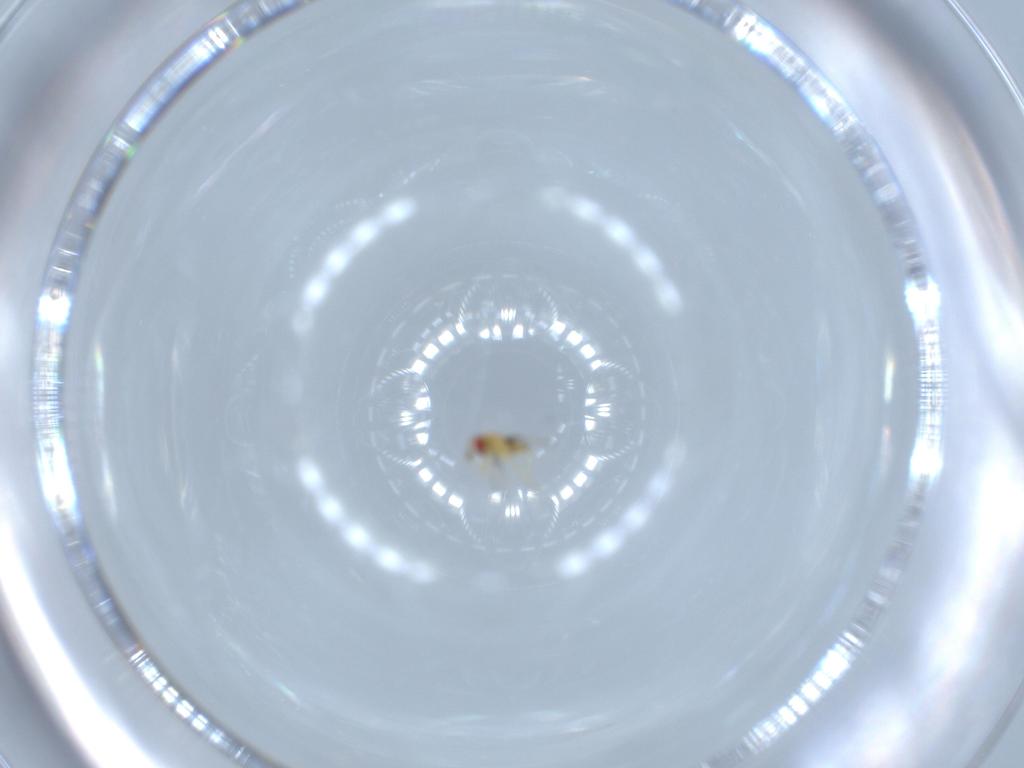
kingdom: Animalia
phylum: Arthropoda
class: Insecta
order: Hymenoptera
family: Trichogrammatidae
